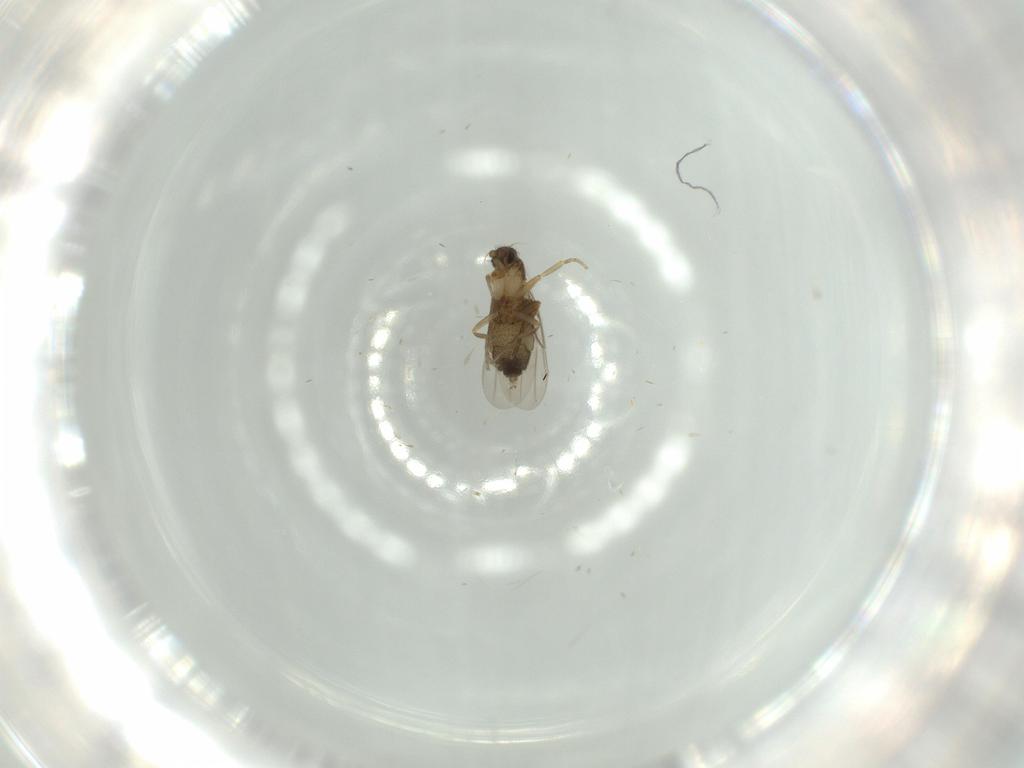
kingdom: Animalia
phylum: Arthropoda
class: Insecta
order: Diptera
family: Phoridae
